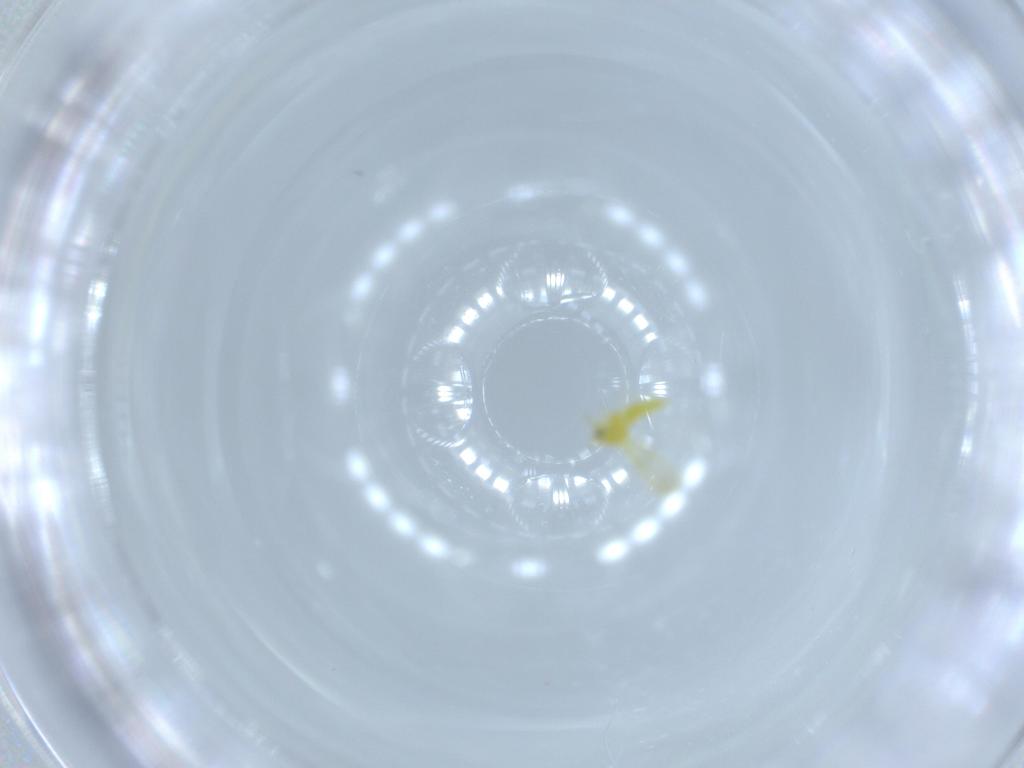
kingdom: Animalia
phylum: Arthropoda
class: Insecta
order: Hemiptera
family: Aleyrodidae
